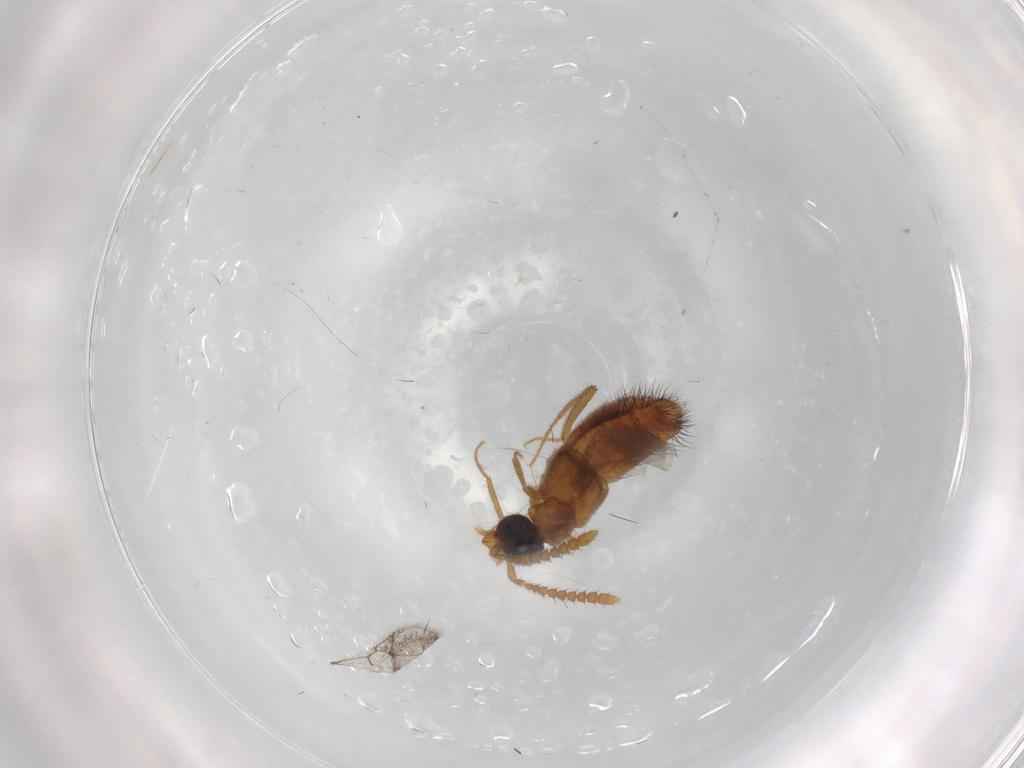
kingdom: Animalia
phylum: Arthropoda
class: Insecta
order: Coleoptera
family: Staphylinidae
